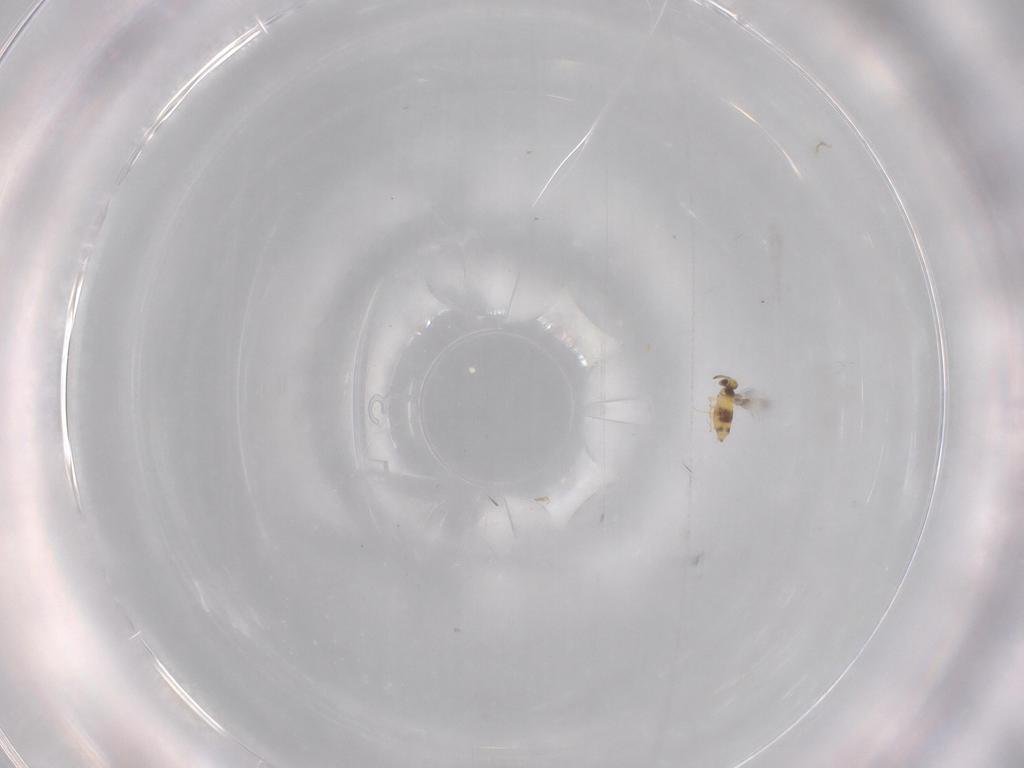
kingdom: Animalia
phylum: Arthropoda
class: Insecta
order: Hymenoptera
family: Signiphoridae
